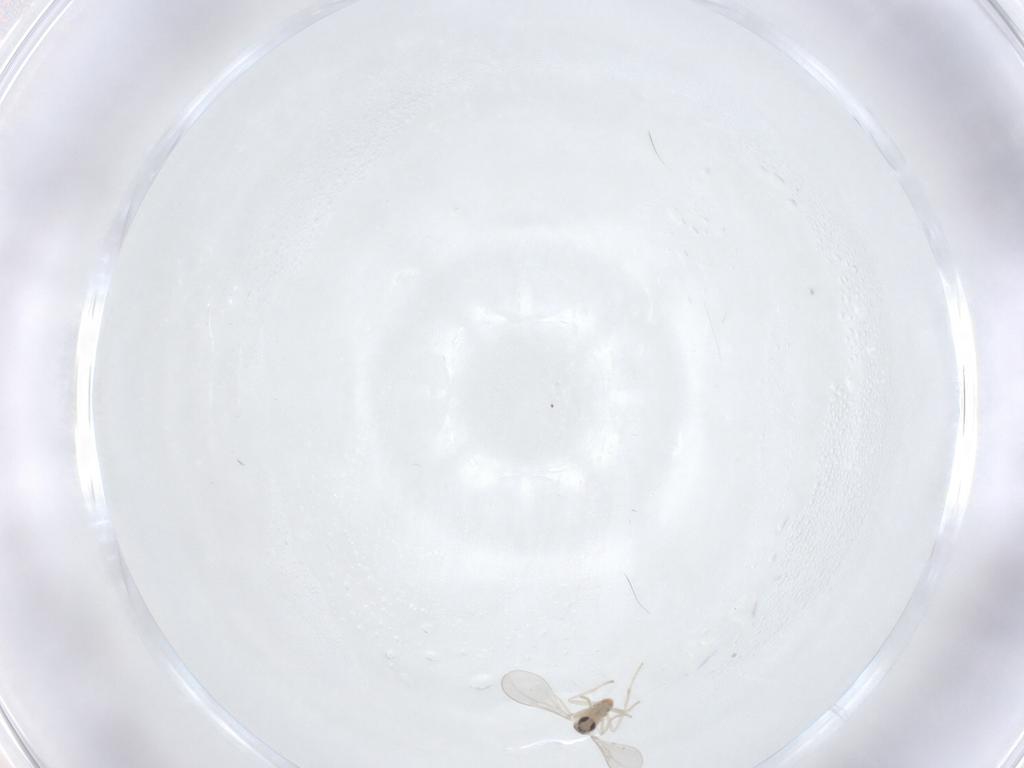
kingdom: Animalia
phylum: Arthropoda
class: Insecta
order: Diptera
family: Cecidomyiidae
